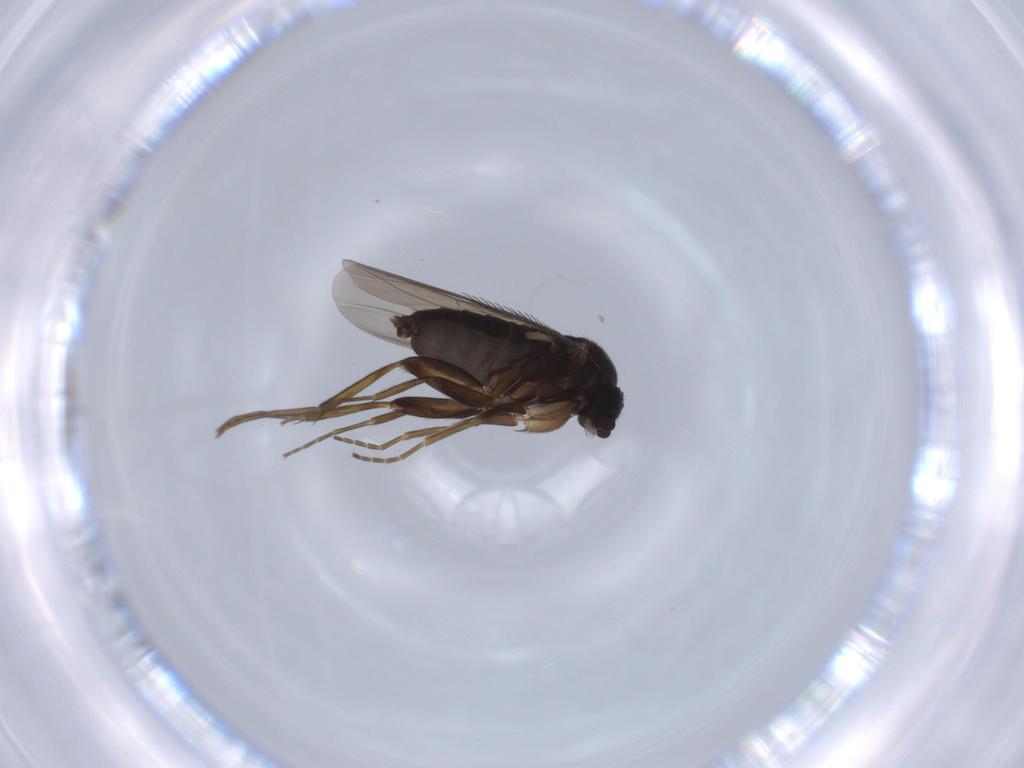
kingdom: Animalia
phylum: Arthropoda
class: Insecta
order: Diptera
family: Phoridae
